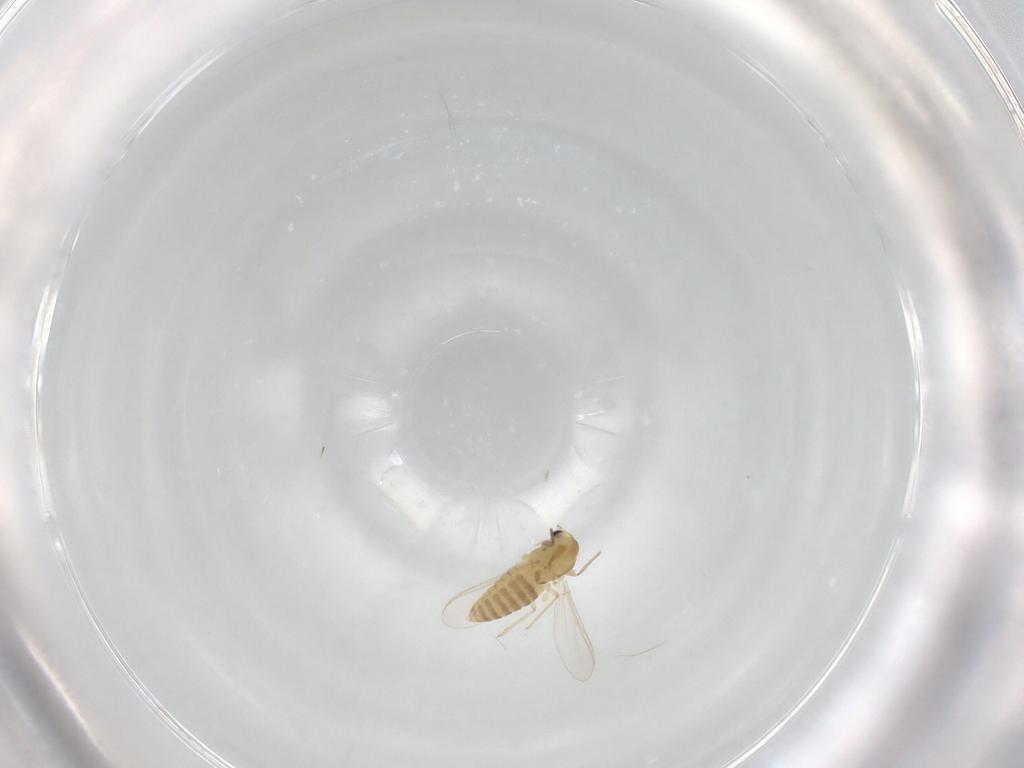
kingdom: Animalia
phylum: Arthropoda
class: Insecta
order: Diptera
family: Chironomidae
